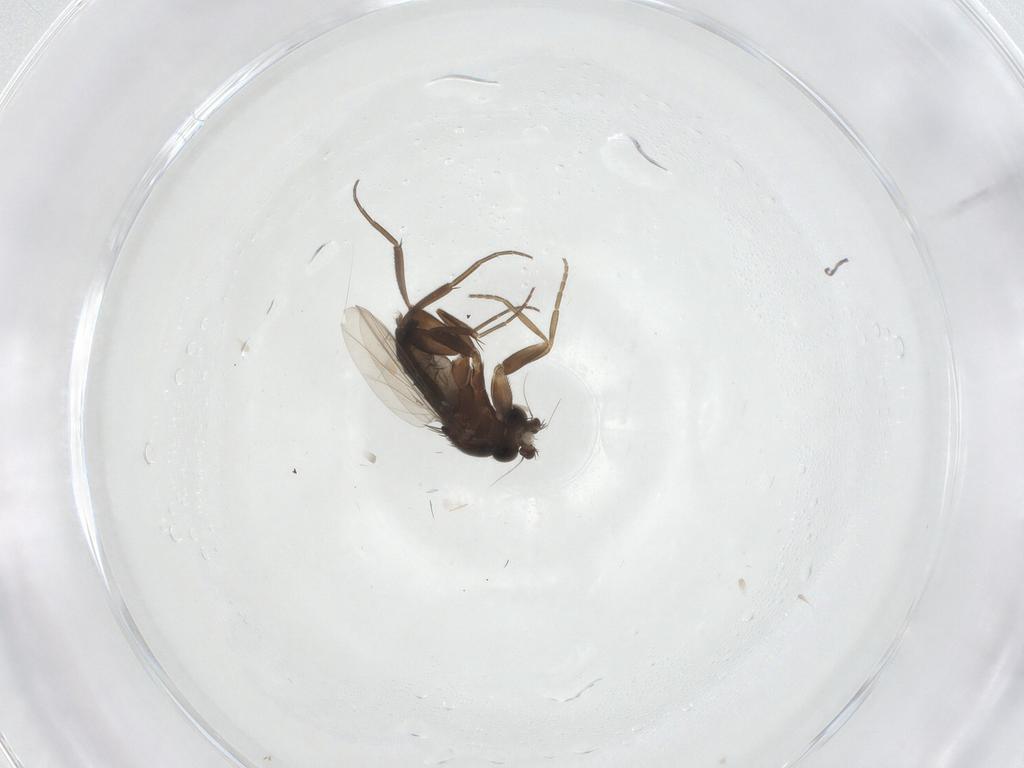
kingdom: Animalia
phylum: Arthropoda
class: Insecta
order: Diptera
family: Phoridae
